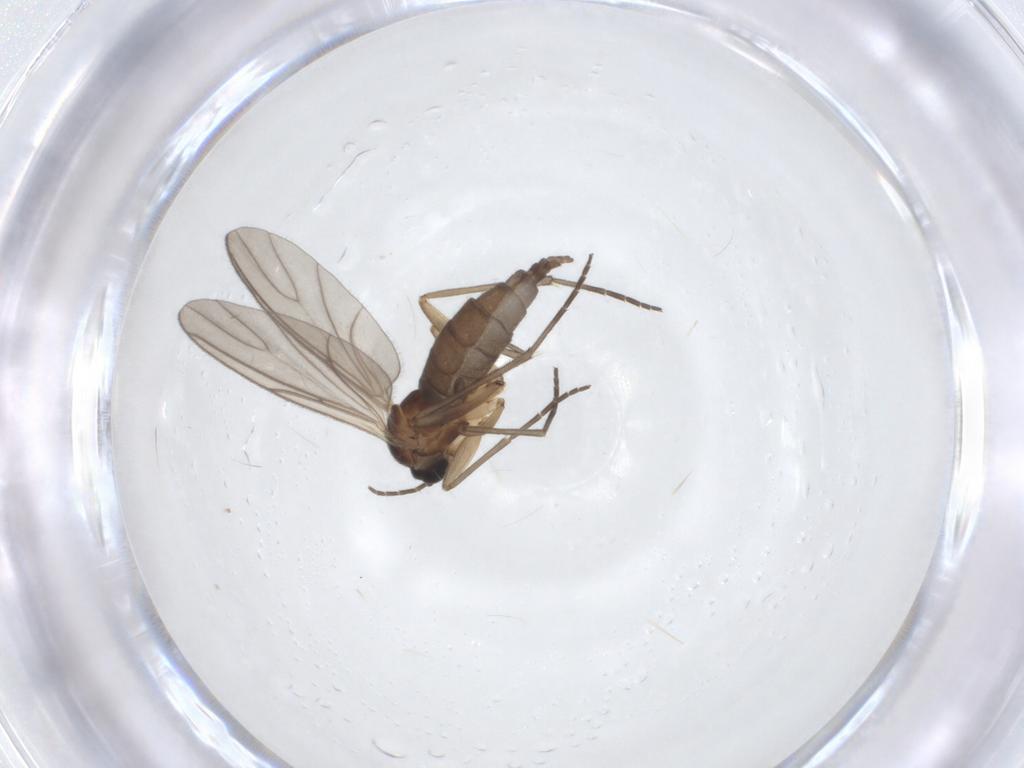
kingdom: Animalia
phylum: Arthropoda
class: Insecta
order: Diptera
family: Sciaridae
